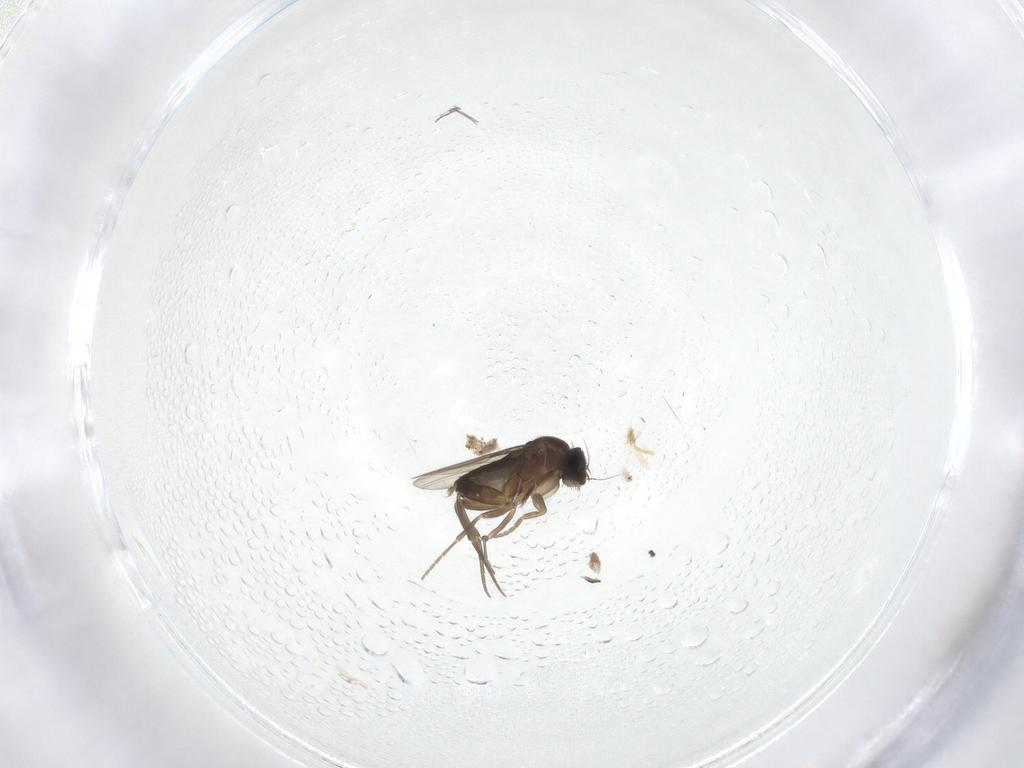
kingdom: Animalia
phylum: Arthropoda
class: Insecta
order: Diptera
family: Phoridae
